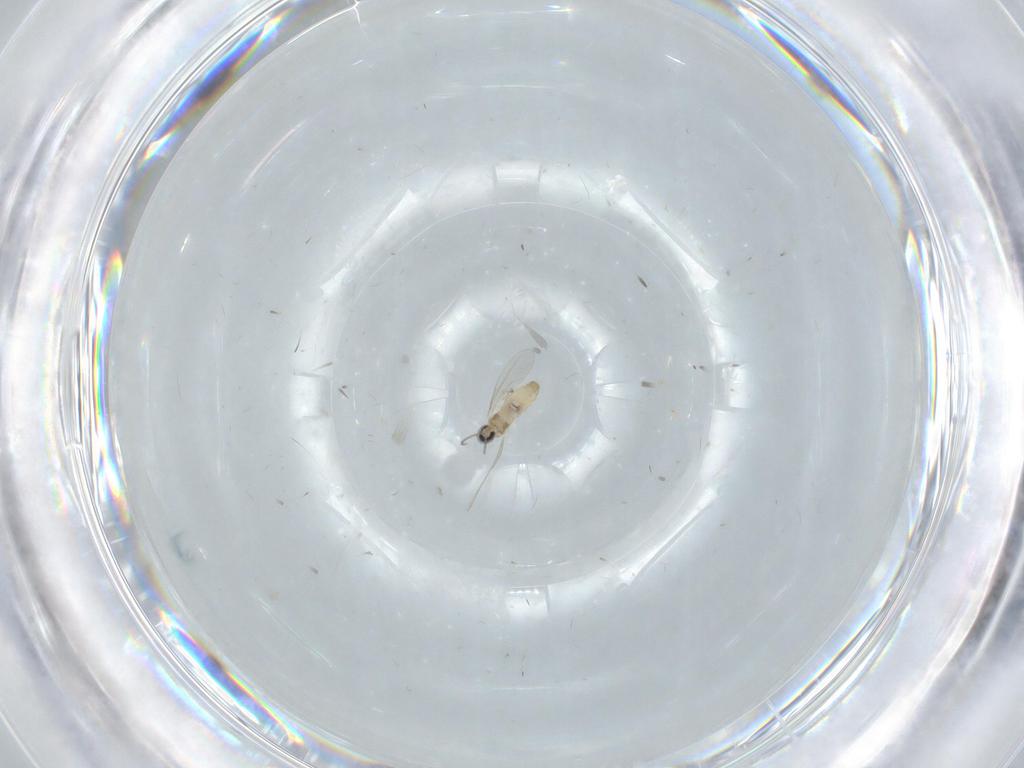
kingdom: Animalia
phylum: Arthropoda
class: Insecta
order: Diptera
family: Cecidomyiidae
